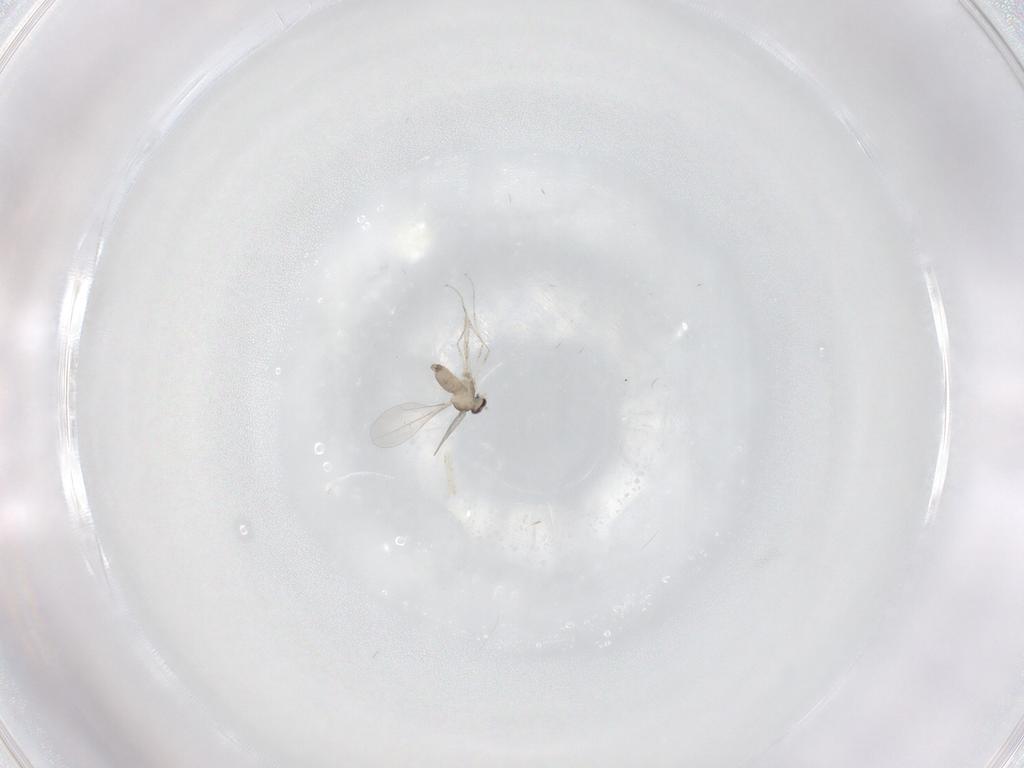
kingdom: Animalia
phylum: Arthropoda
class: Insecta
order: Diptera
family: Cecidomyiidae
